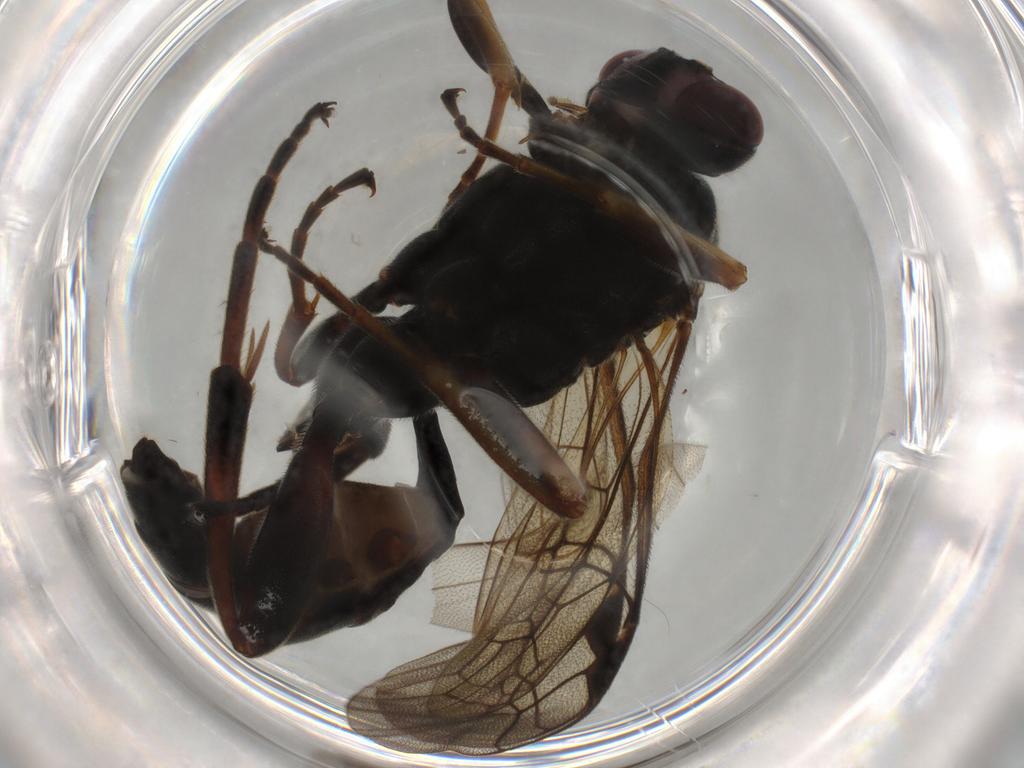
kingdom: Animalia
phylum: Arthropoda
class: Insecta
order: Hymenoptera
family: Ichneumonidae
